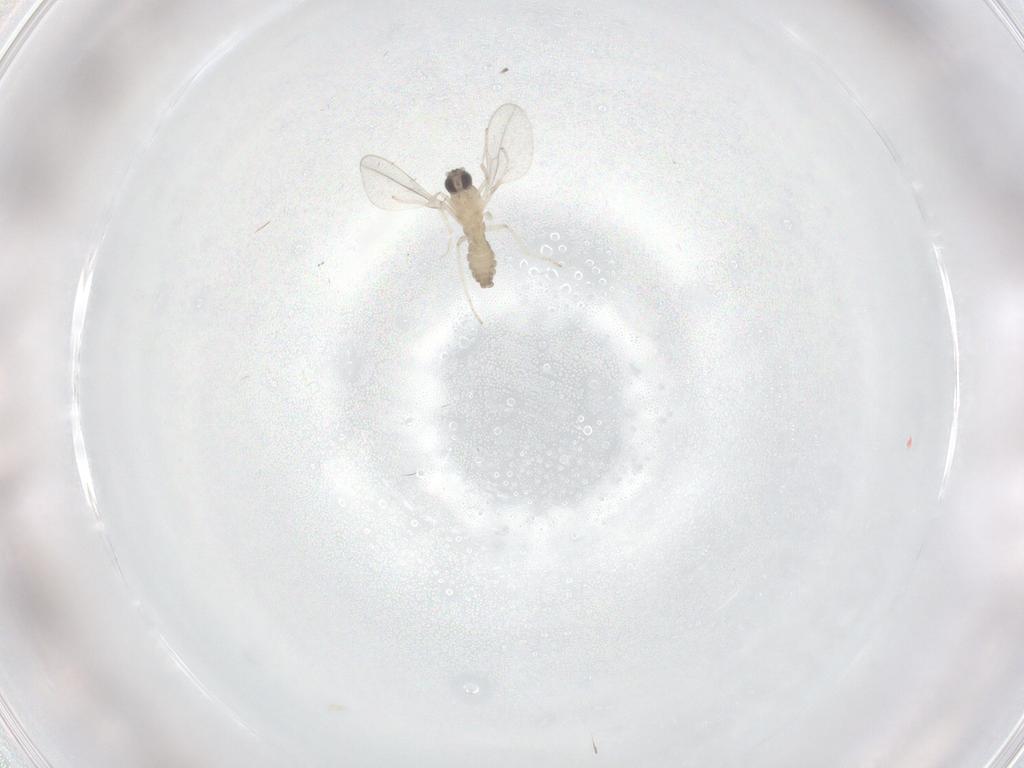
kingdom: Animalia
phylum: Arthropoda
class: Insecta
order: Diptera
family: Cecidomyiidae
